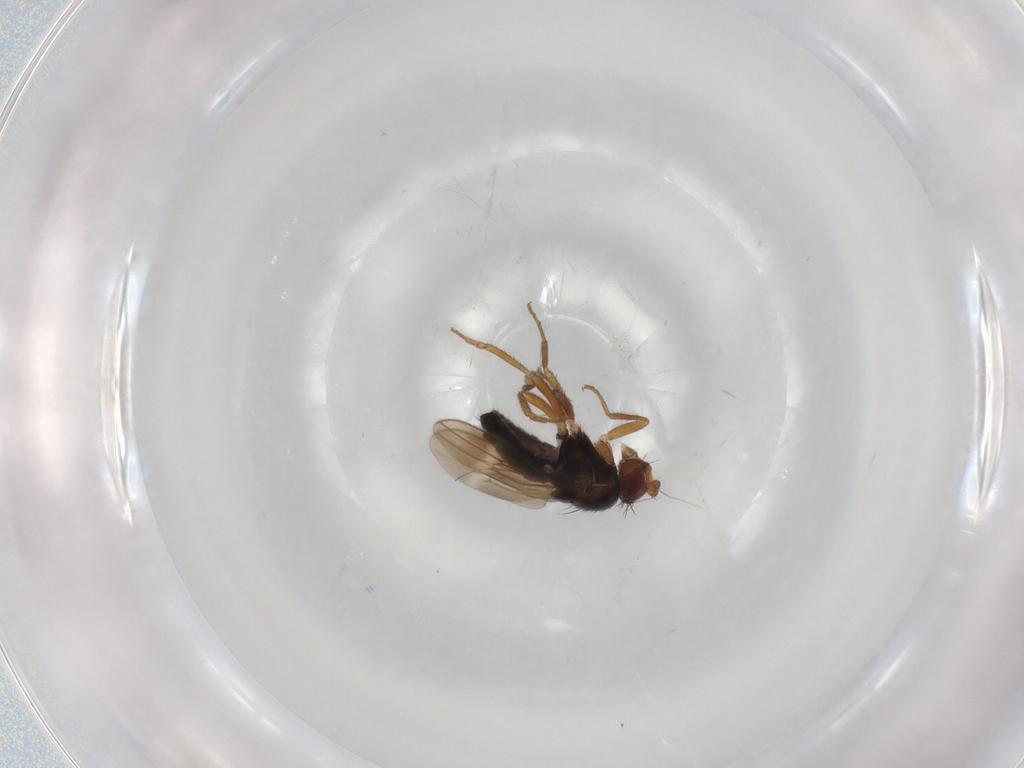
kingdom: Animalia
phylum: Arthropoda
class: Insecta
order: Diptera
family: Sphaeroceridae
